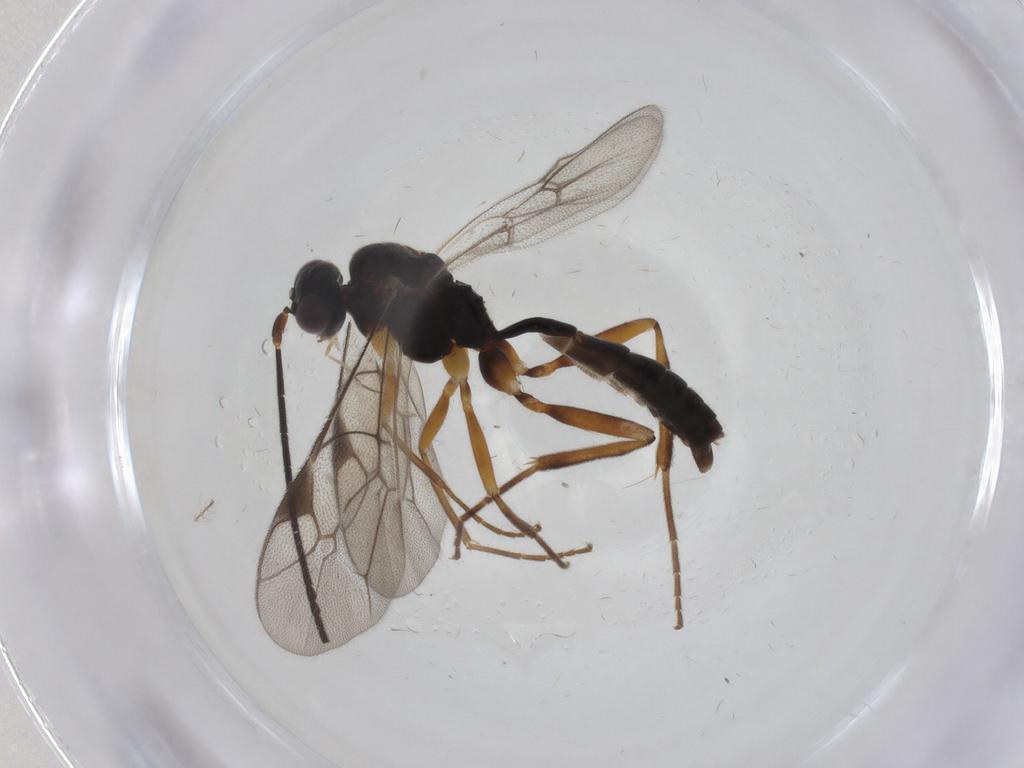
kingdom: Animalia
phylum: Arthropoda
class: Insecta
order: Hymenoptera
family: Ichneumonidae
